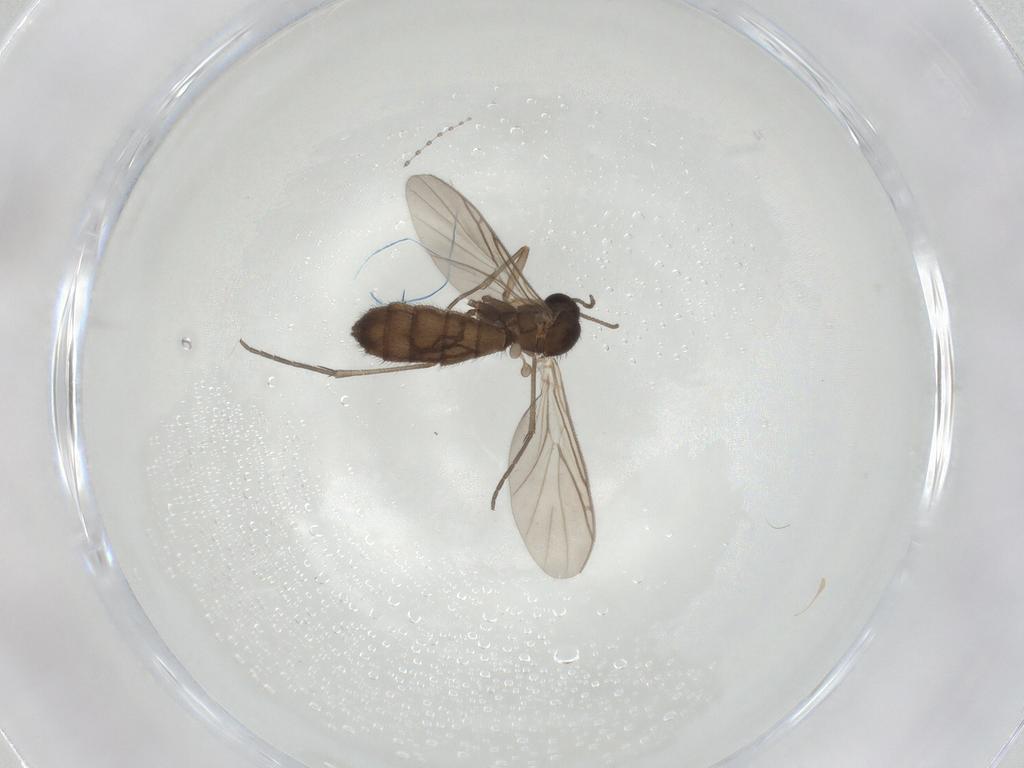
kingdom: Animalia
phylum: Arthropoda
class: Insecta
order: Diptera
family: Keroplatidae
